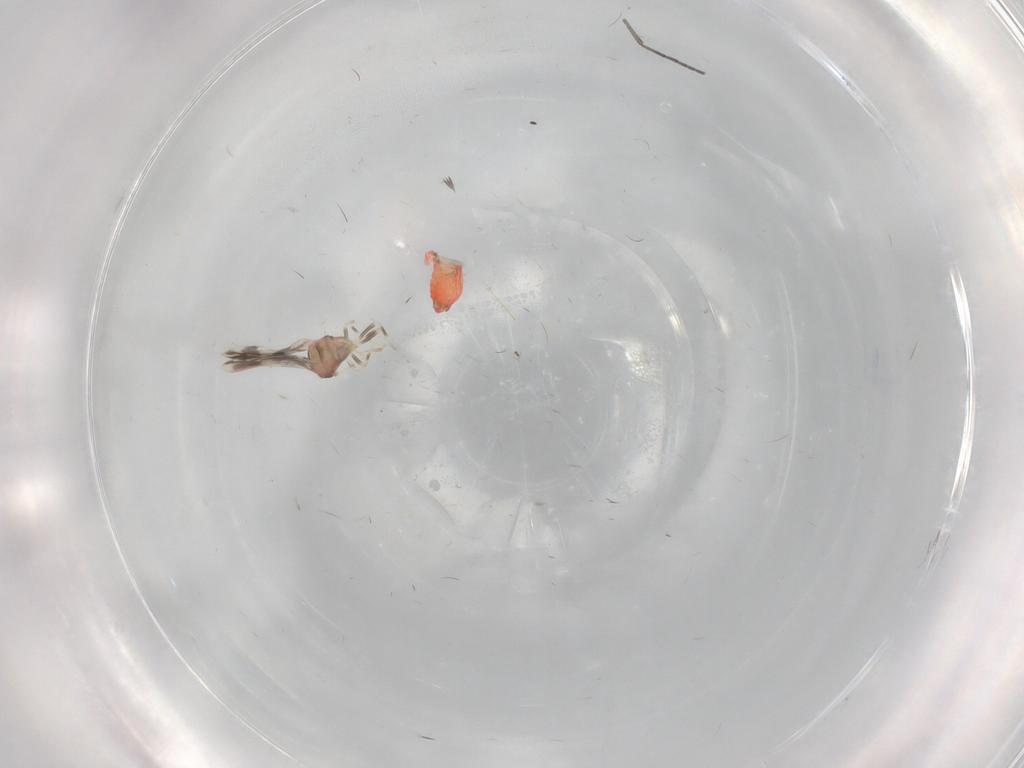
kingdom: Animalia
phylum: Arthropoda
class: Insecta
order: Hemiptera
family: Aleyrodidae
